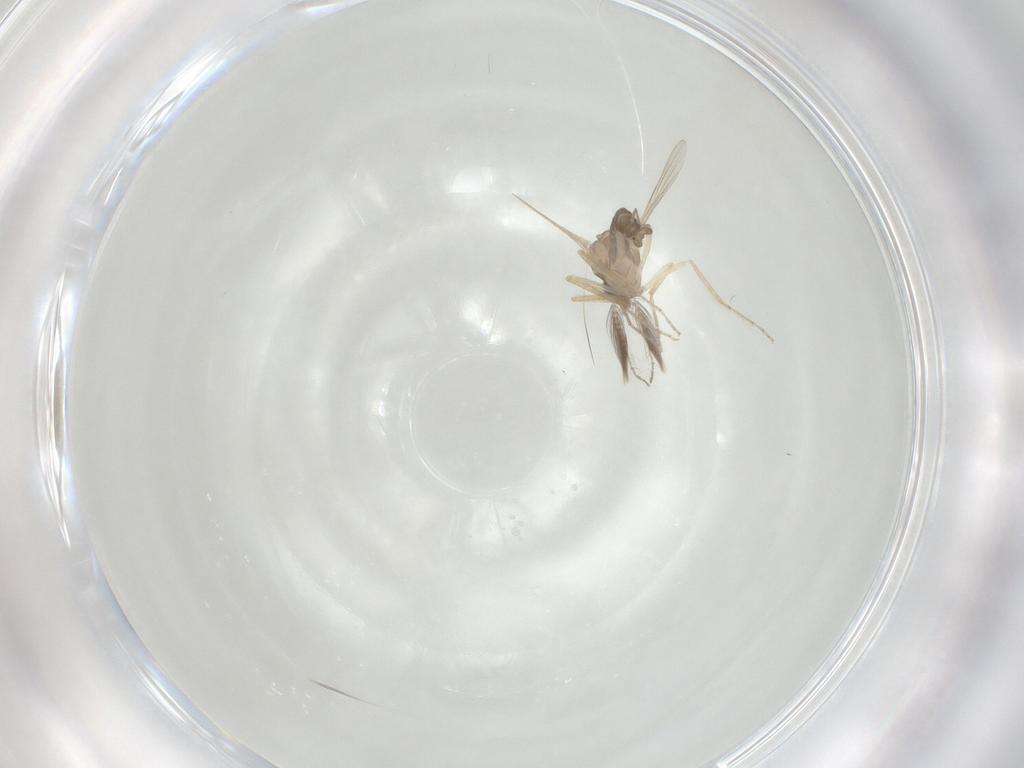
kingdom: Animalia
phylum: Arthropoda
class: Insecta
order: Diptera
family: Ceratopogonidae
